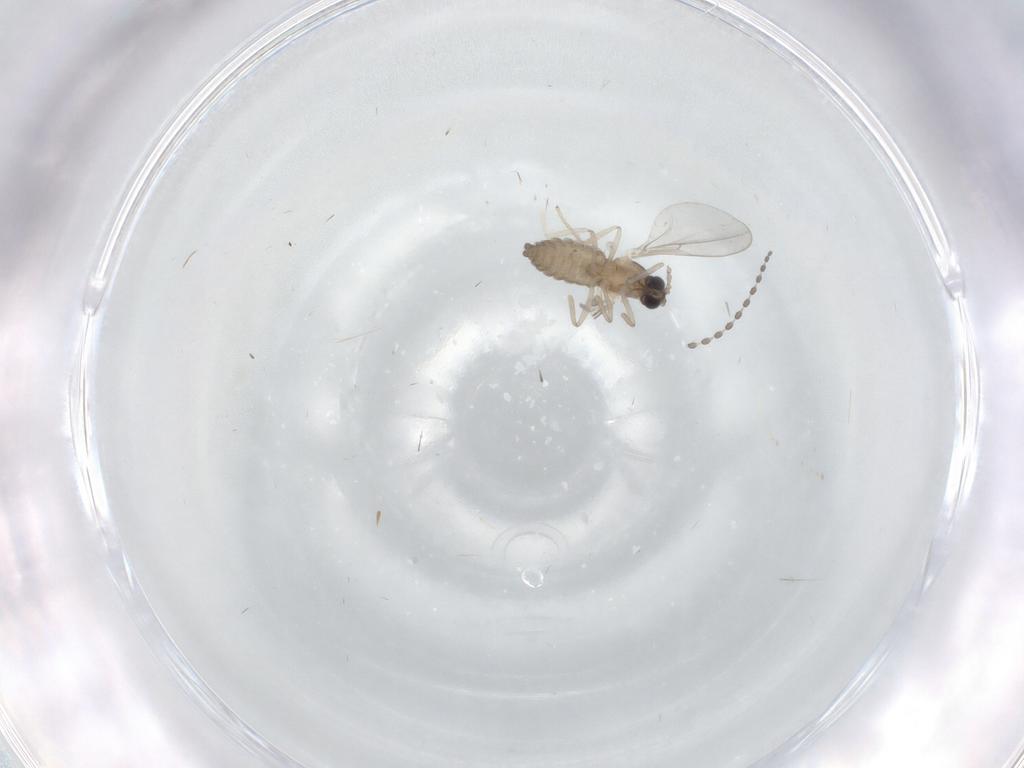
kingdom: Animalia
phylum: Arthropoda
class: Insecta
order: Diptera
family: Cecidomyiidae
